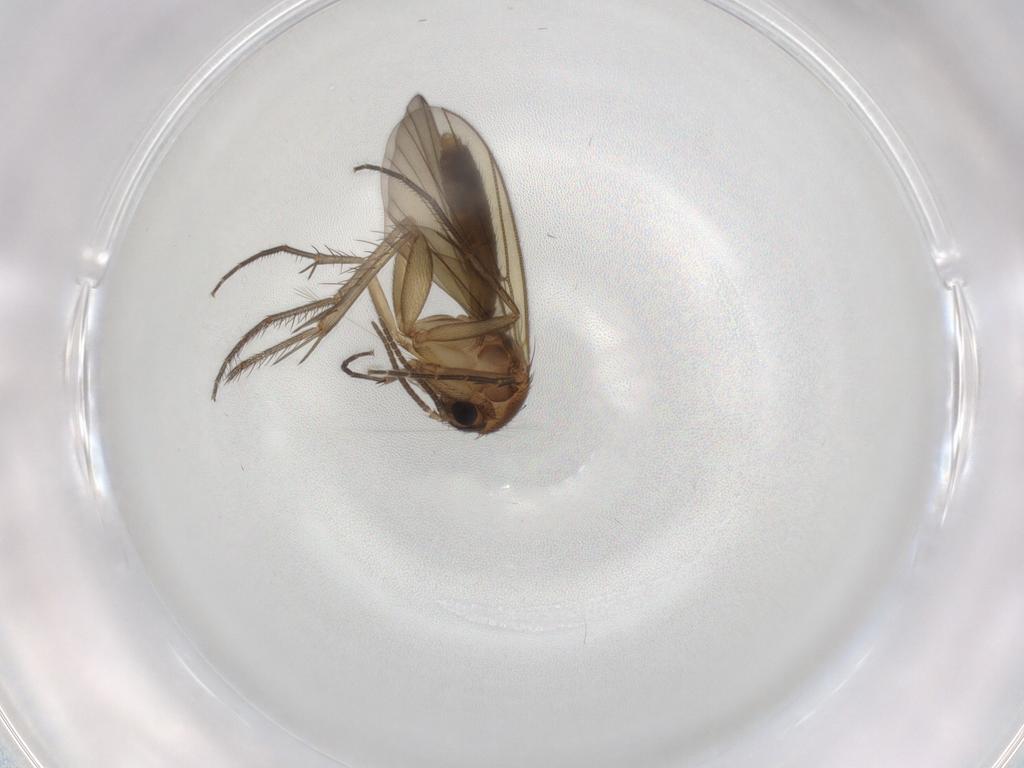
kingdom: Animalia
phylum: Arthropoda
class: Insecta
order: Diptera
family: Mycetophilidae
